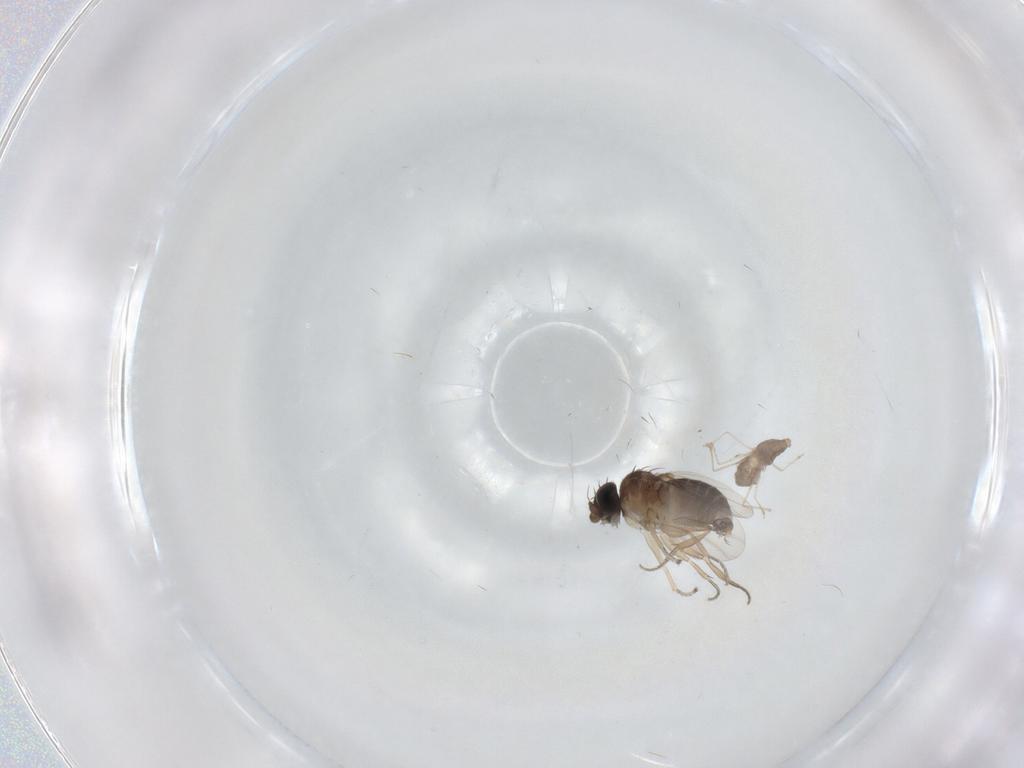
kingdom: Animalia
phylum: Arthropoda
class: Insecta
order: Diptera
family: Phoridae
